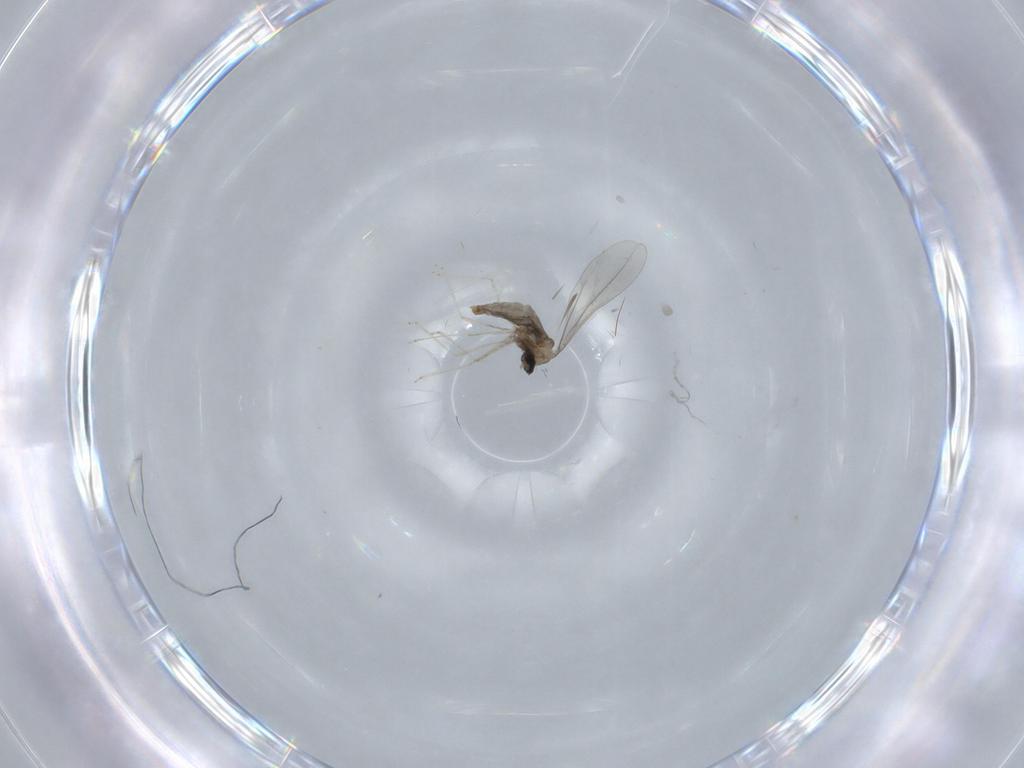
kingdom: Animalia
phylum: Arthropoda
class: Insecta
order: Diptera
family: Cecidomyiidae
